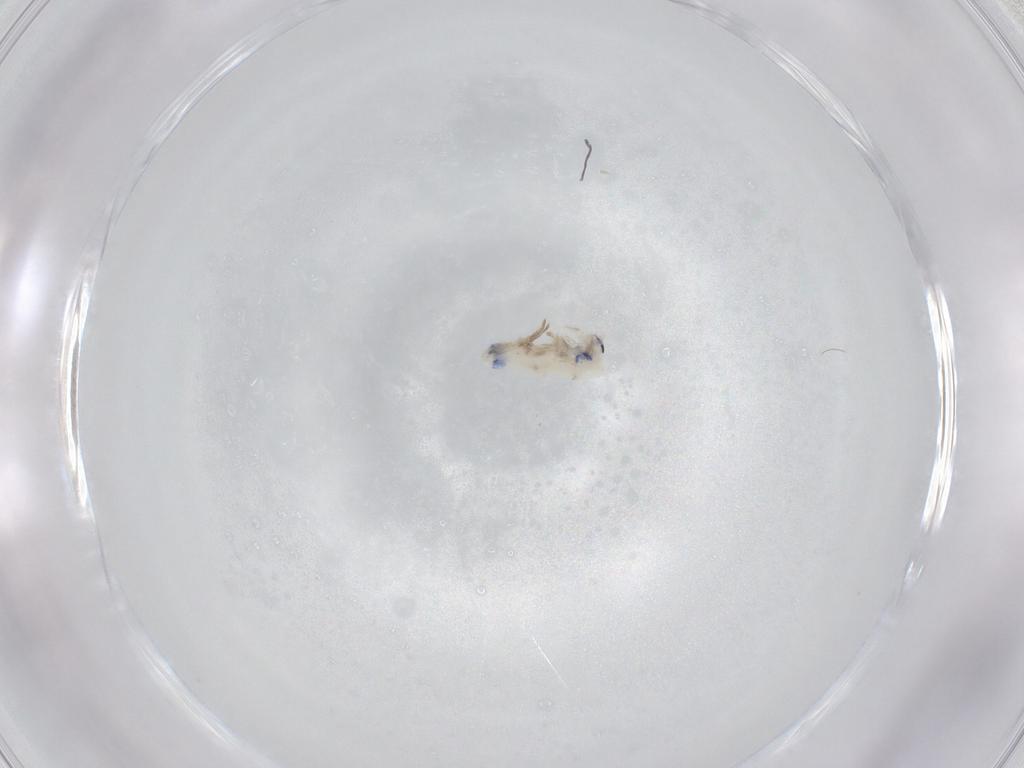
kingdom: Animalia
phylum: Arthropoda
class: Collembola
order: Entomobryomorpha
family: Entomobryidae
